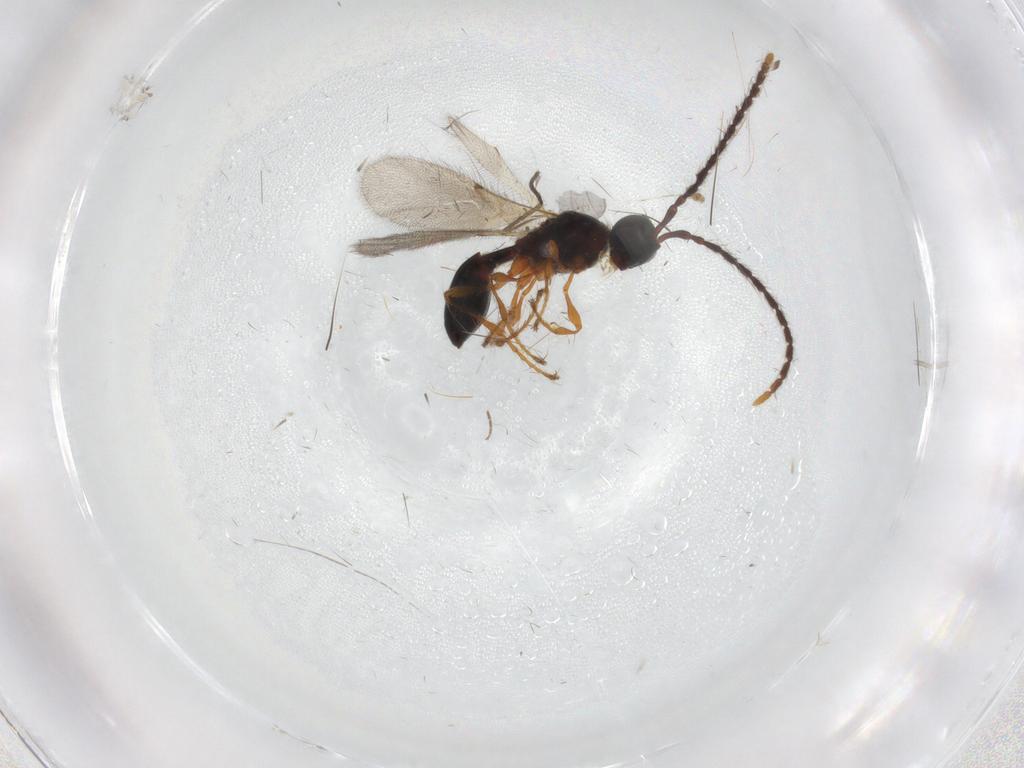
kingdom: Animalia
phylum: Arthropoda
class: Insecta
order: Hymenoptera
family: Diapriidae
